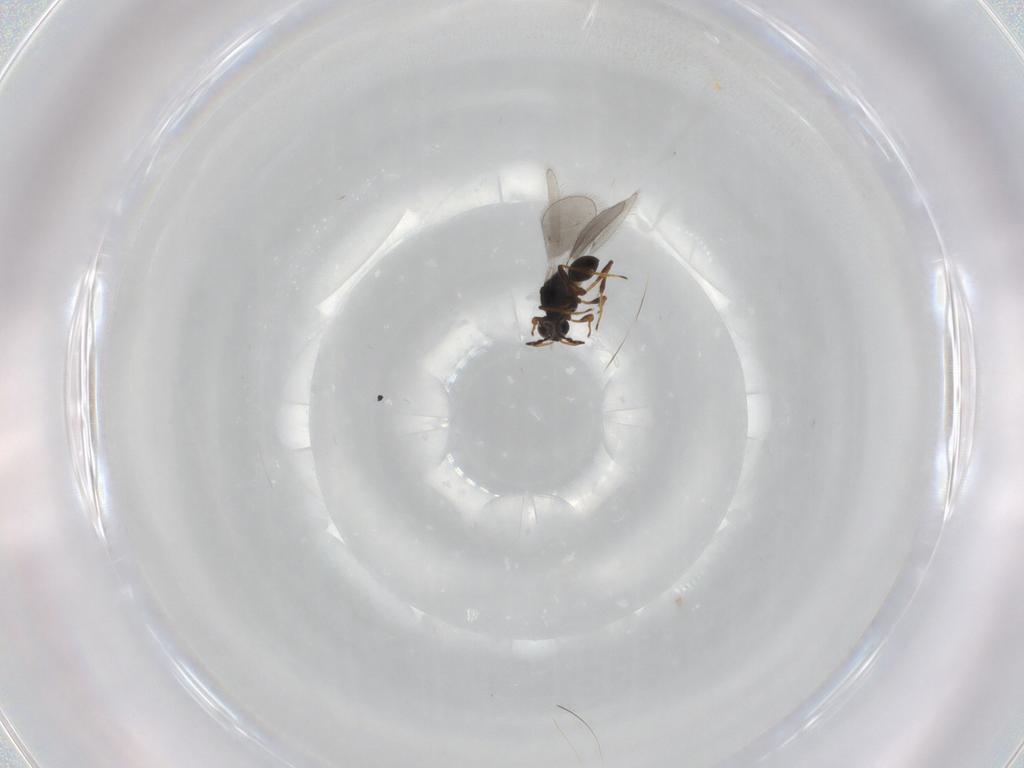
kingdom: Animalia
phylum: Arthropoda
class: Insecta
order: Hymenoptera
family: Platygastridae
